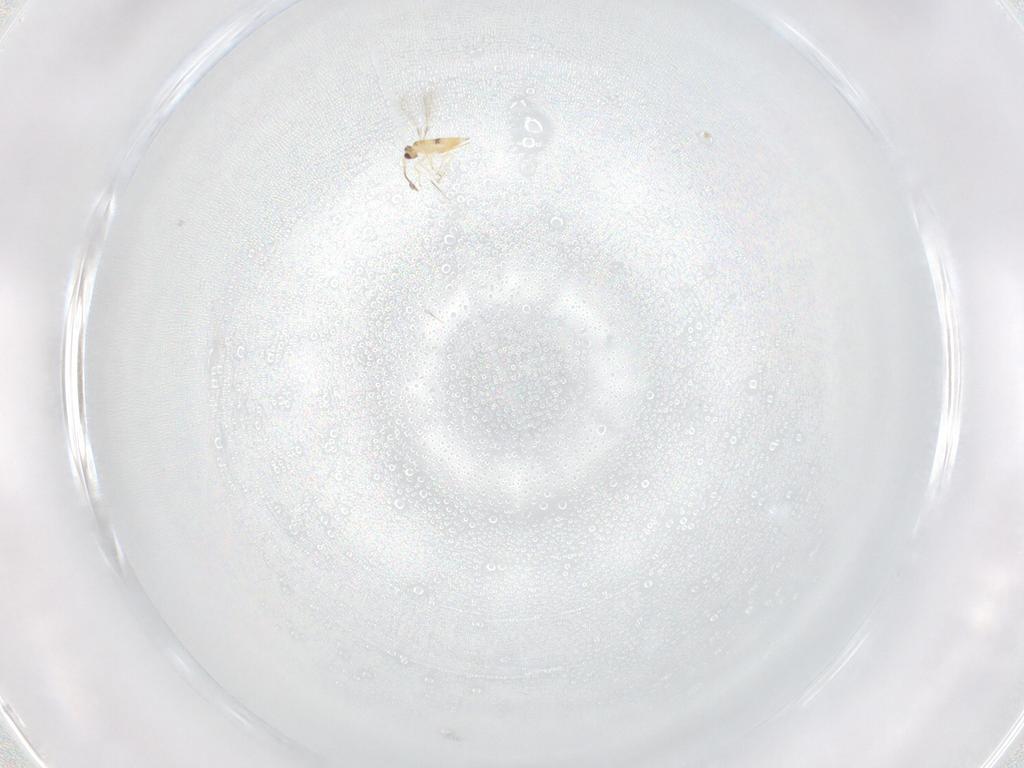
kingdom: Animalia
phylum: Arthropoda
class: Insecta
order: Hymenoptera
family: Mymaridae
